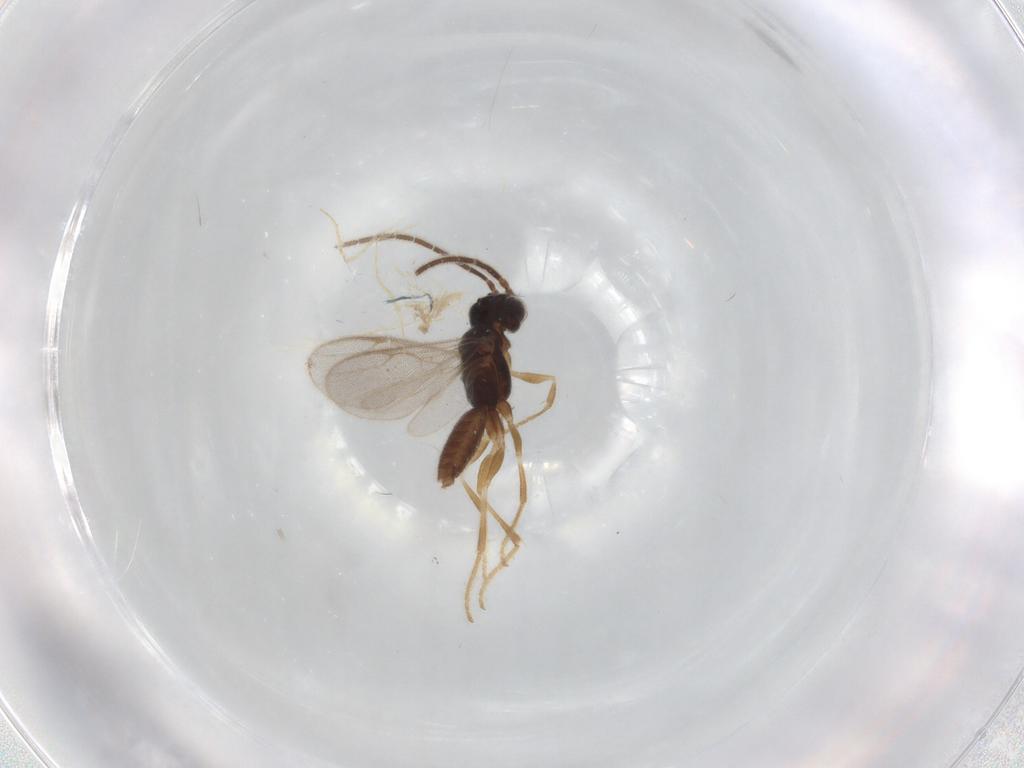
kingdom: Animalia
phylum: Arthropoda
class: Insecta
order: Hymenoptera
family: Dryinidae
